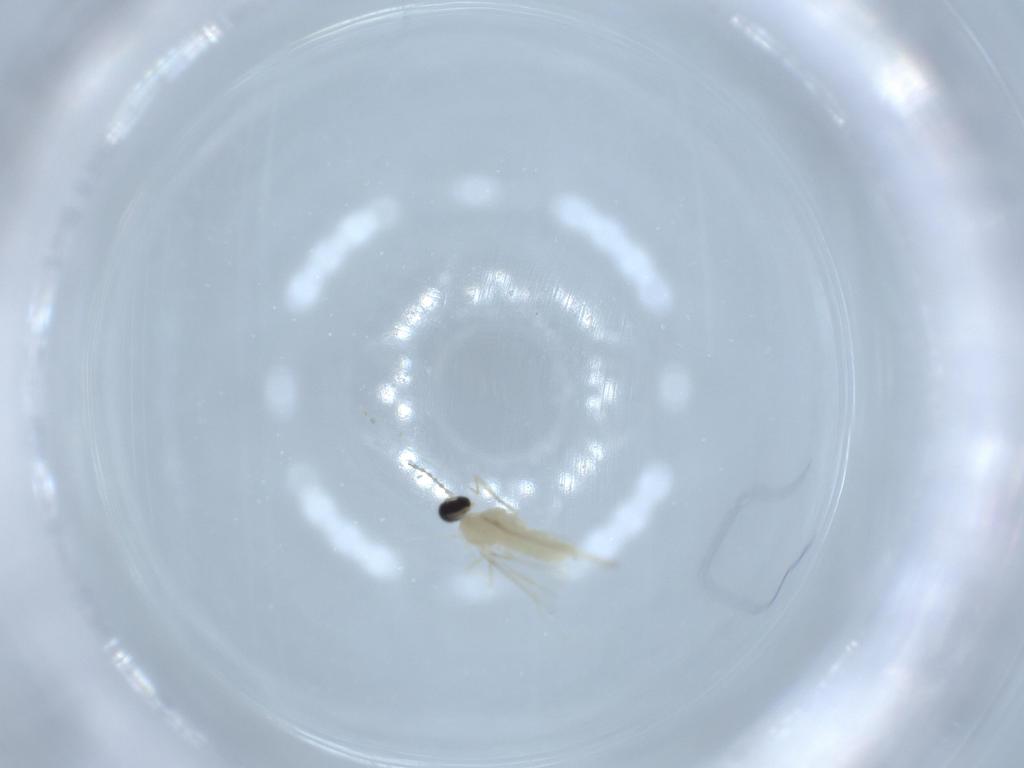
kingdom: Animalia
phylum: Arthropoda
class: Insecta
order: Diptera
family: Cecidomyiidae
